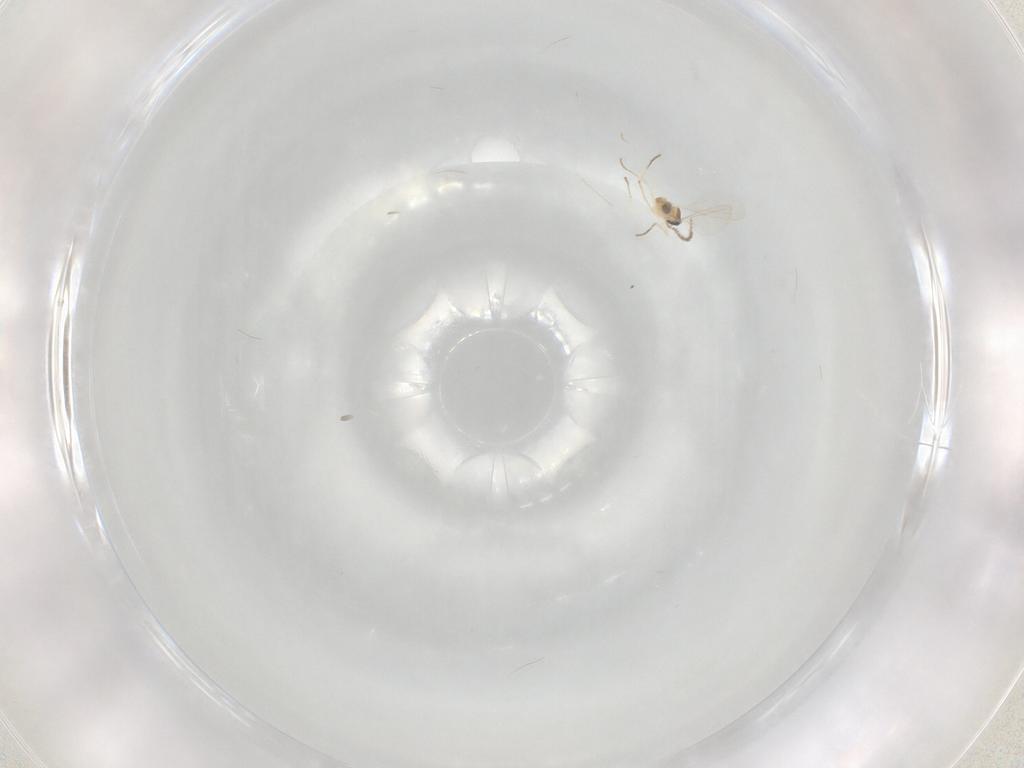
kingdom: Animalia
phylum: Arthropoda
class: Insecta
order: Diptera
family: Cecidomyiidae
